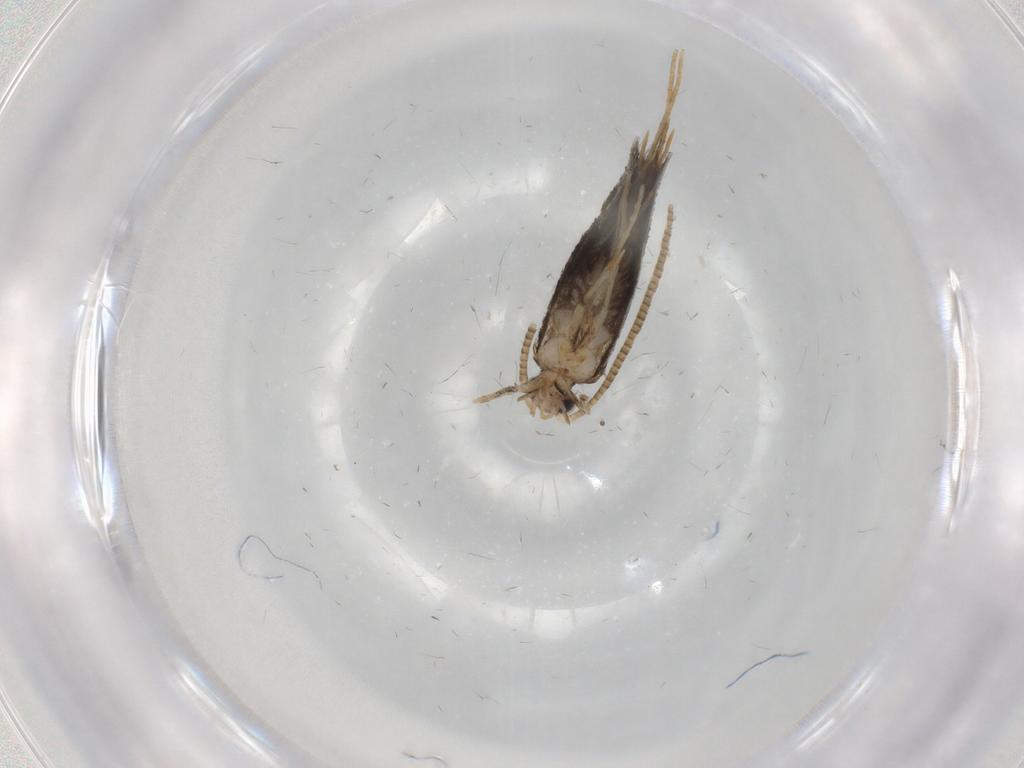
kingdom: Animalia
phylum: Arthropoda
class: Insecta
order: Lepidoptera
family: Tineidae
